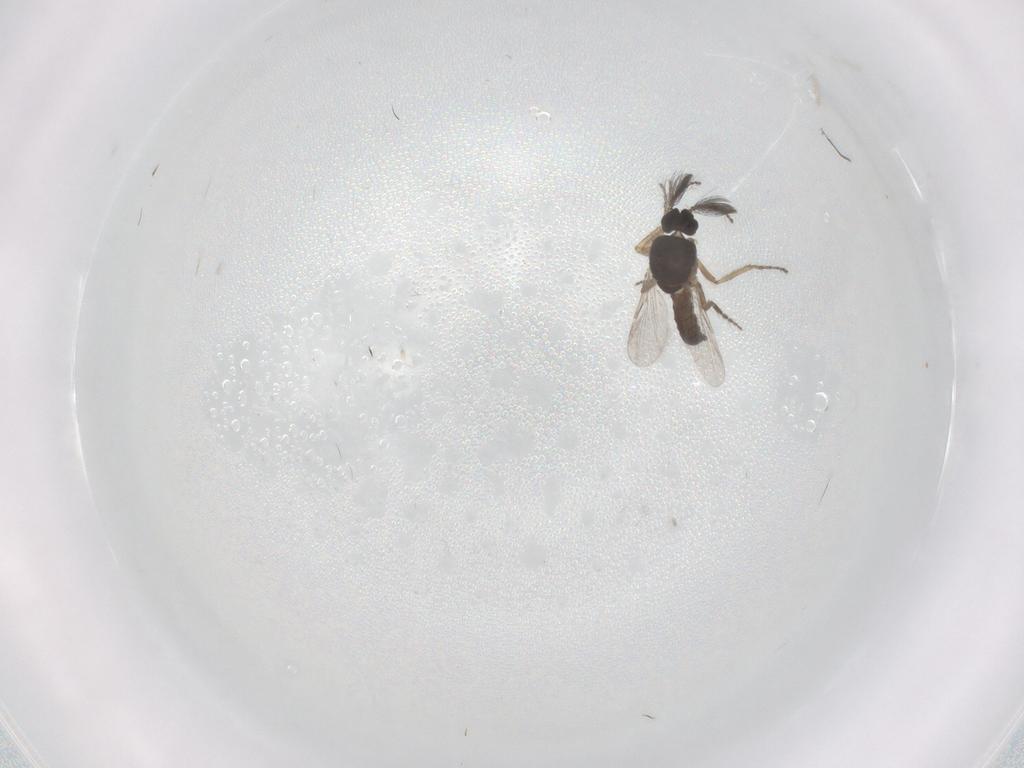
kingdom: Animalia
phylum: Arthropoda
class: Insecta
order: Diptera
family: Ceratopogonidae
